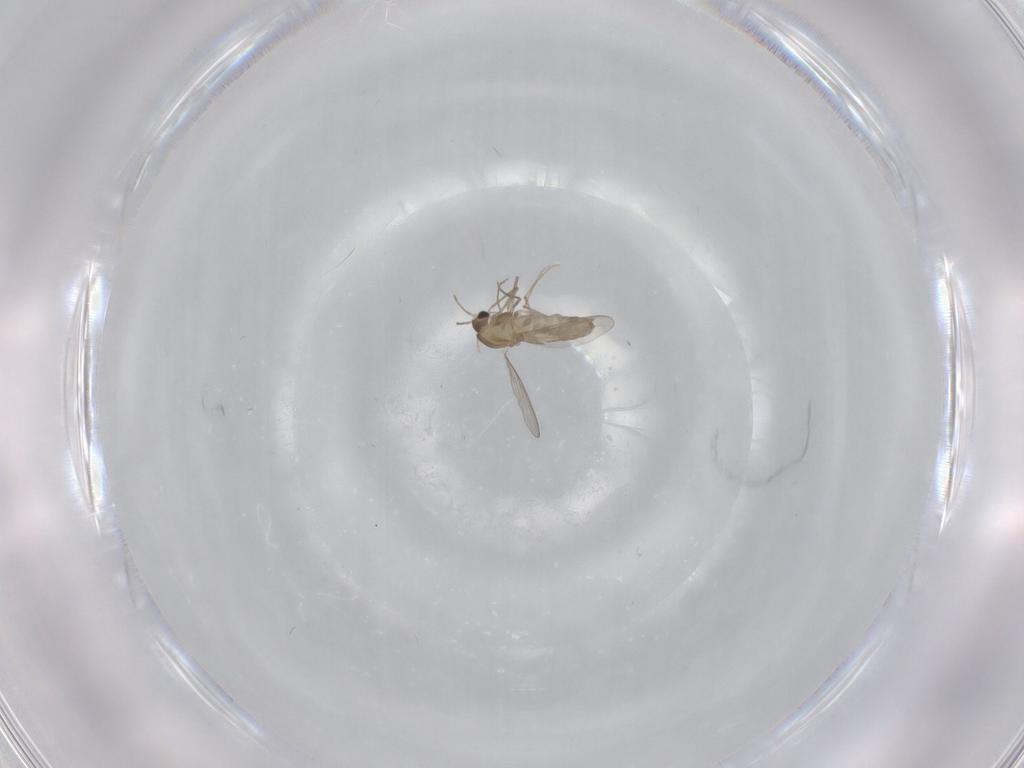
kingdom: Animalia
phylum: Arthropoda
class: Insecta
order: Diptera
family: Chironomidae
